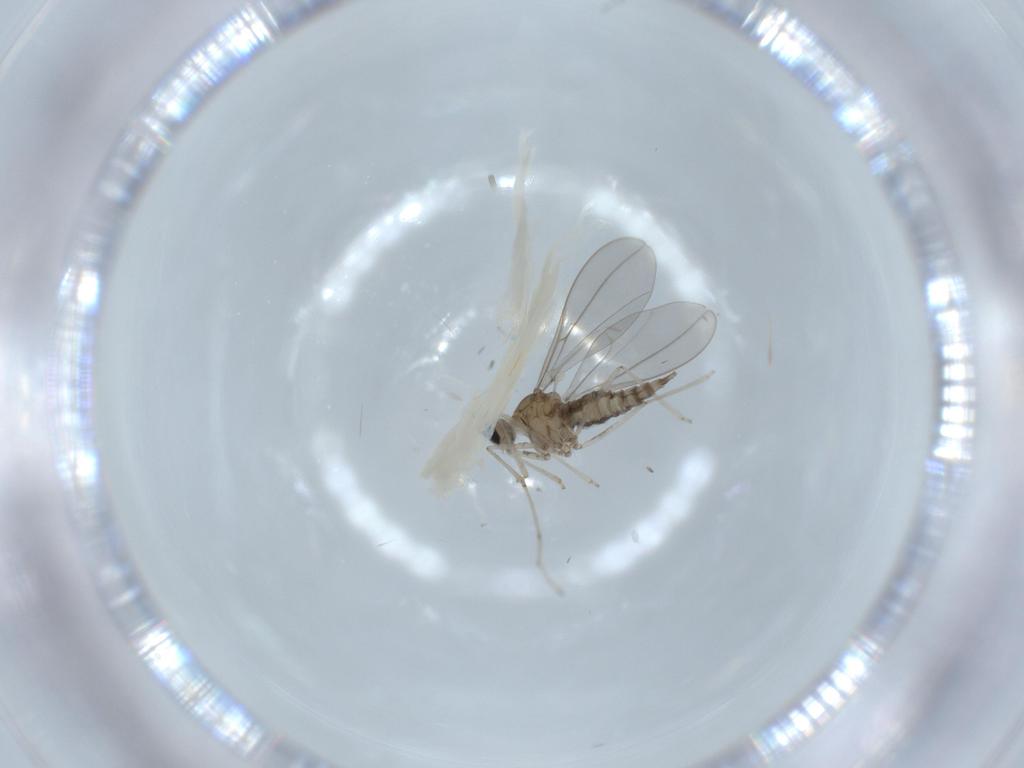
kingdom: Animalia
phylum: Arthropoda
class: Insecta
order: Diptera
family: Cecidomyiidae
